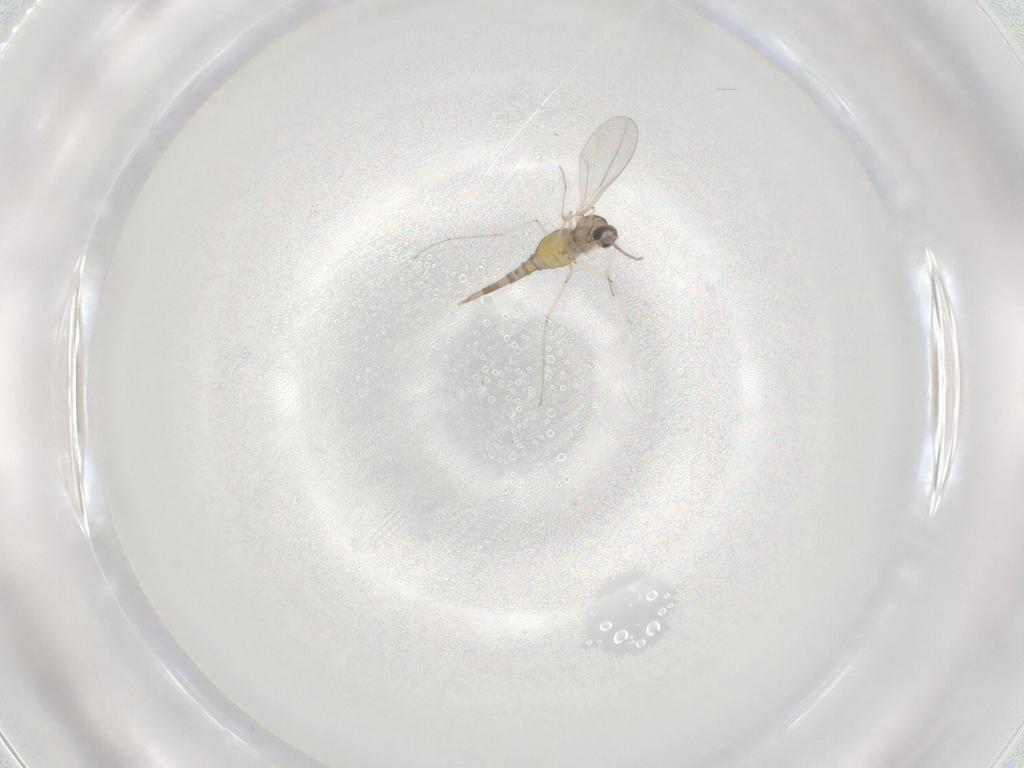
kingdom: Animalia
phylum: Arthropoda
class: Insecta
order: Diptera
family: Cecidomyiidae
